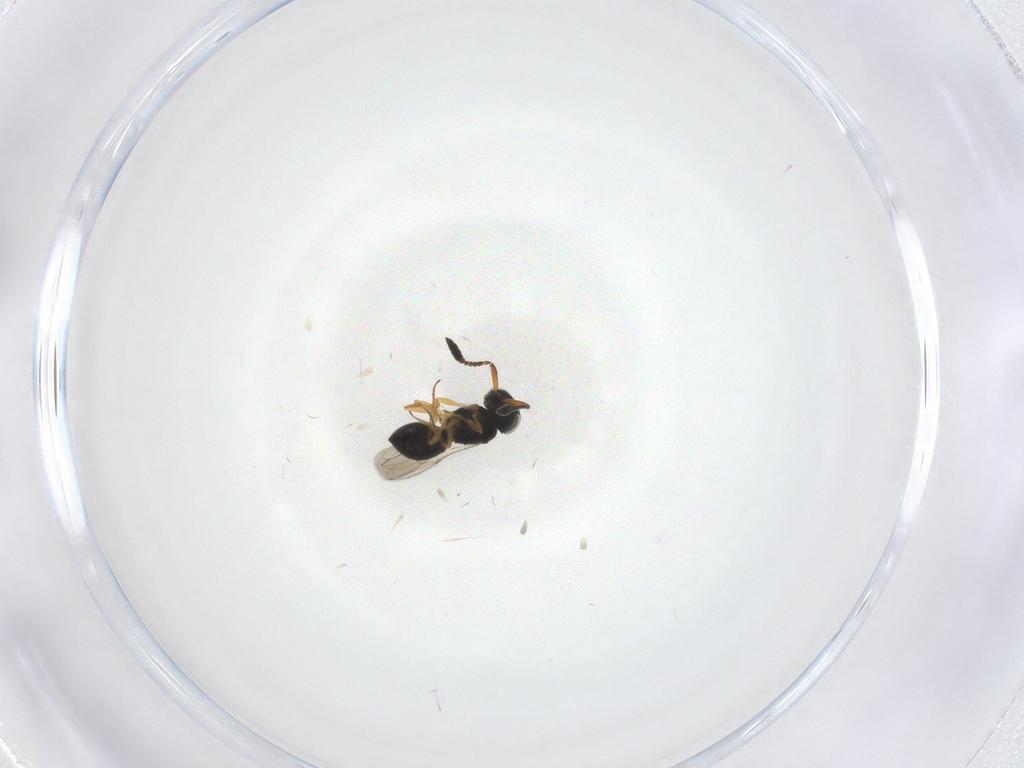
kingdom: Animalia
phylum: Arthropoda
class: Insecta
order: Hymenoptera
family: Scelionidae
